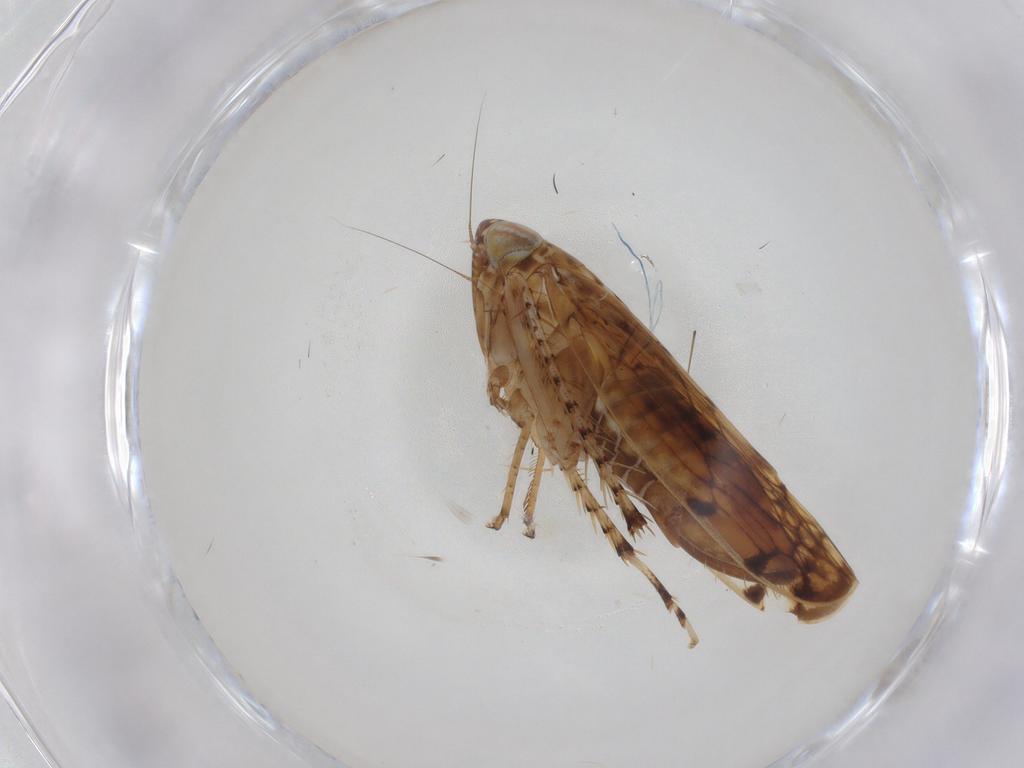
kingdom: Animalia
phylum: Arthropoda
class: Insecta
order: Hemiptera
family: Cicadellidae
